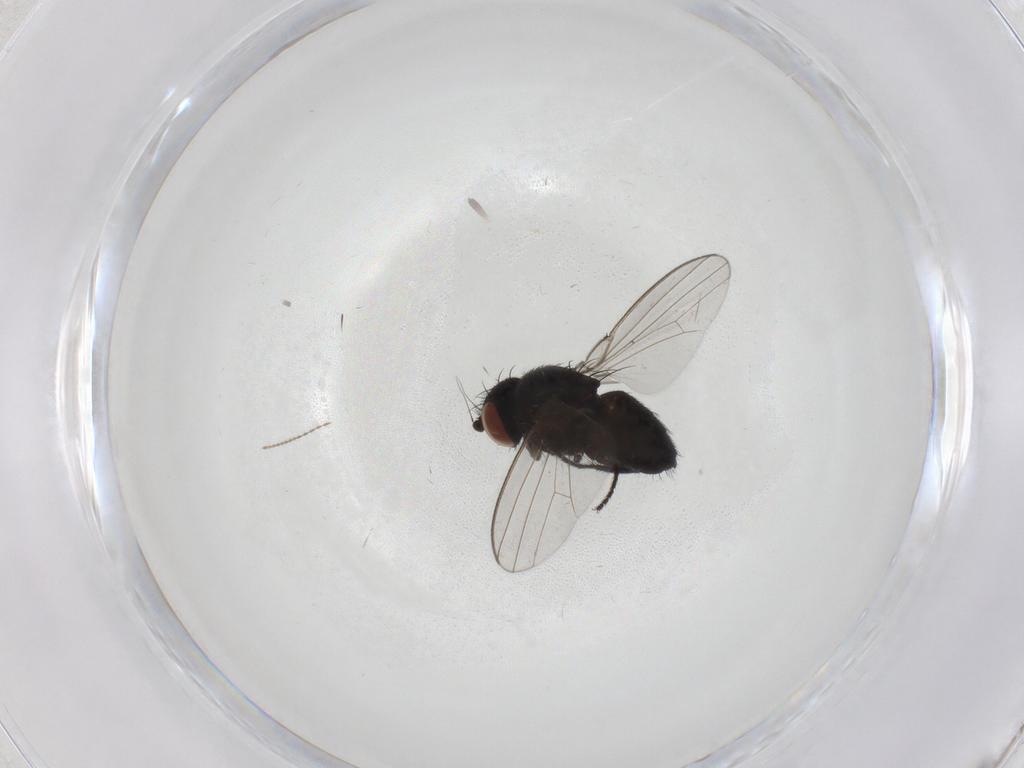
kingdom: Animalia
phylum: Arthropoda
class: Insecta
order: Diptera
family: Milichiidae
